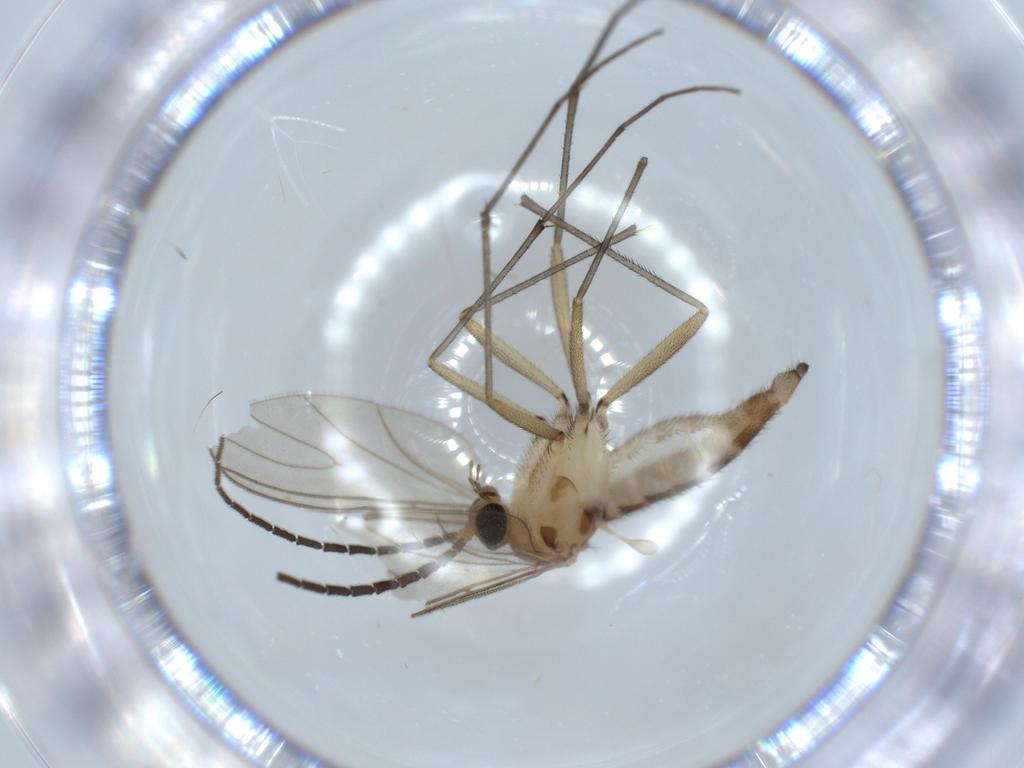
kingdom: Animalia
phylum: Arthropoda
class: Insecta
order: Diptera
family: Sciaridae
